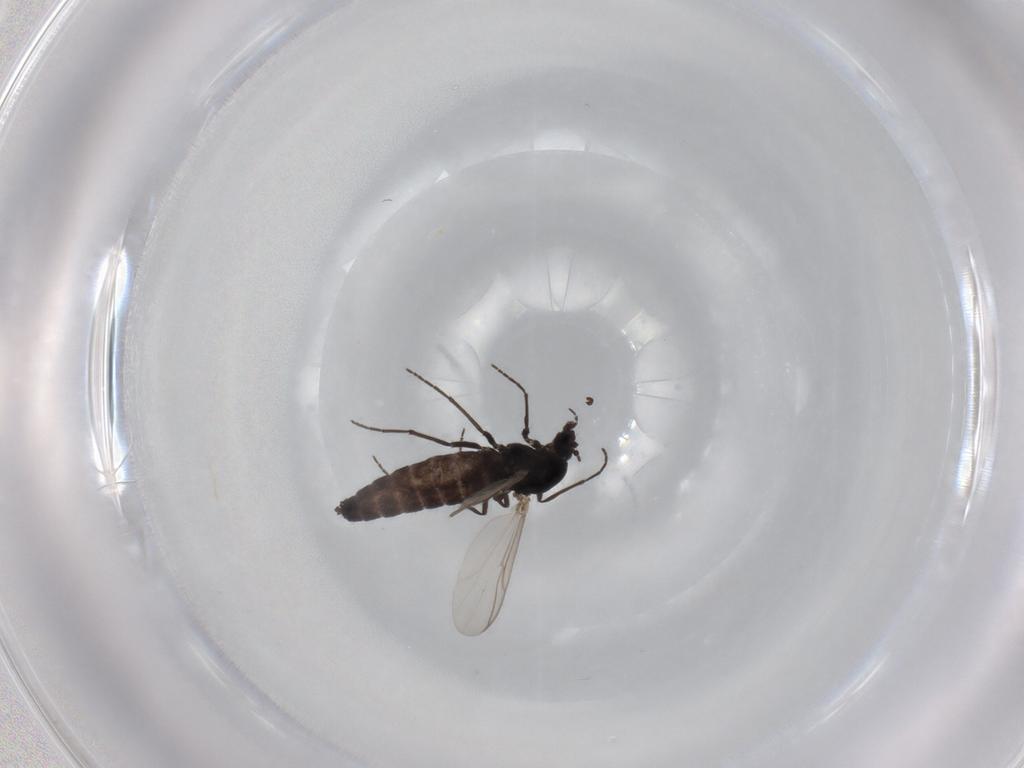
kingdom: Animalia
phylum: Arthropoda
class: Insecta
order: Diptera
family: Chironomidae
